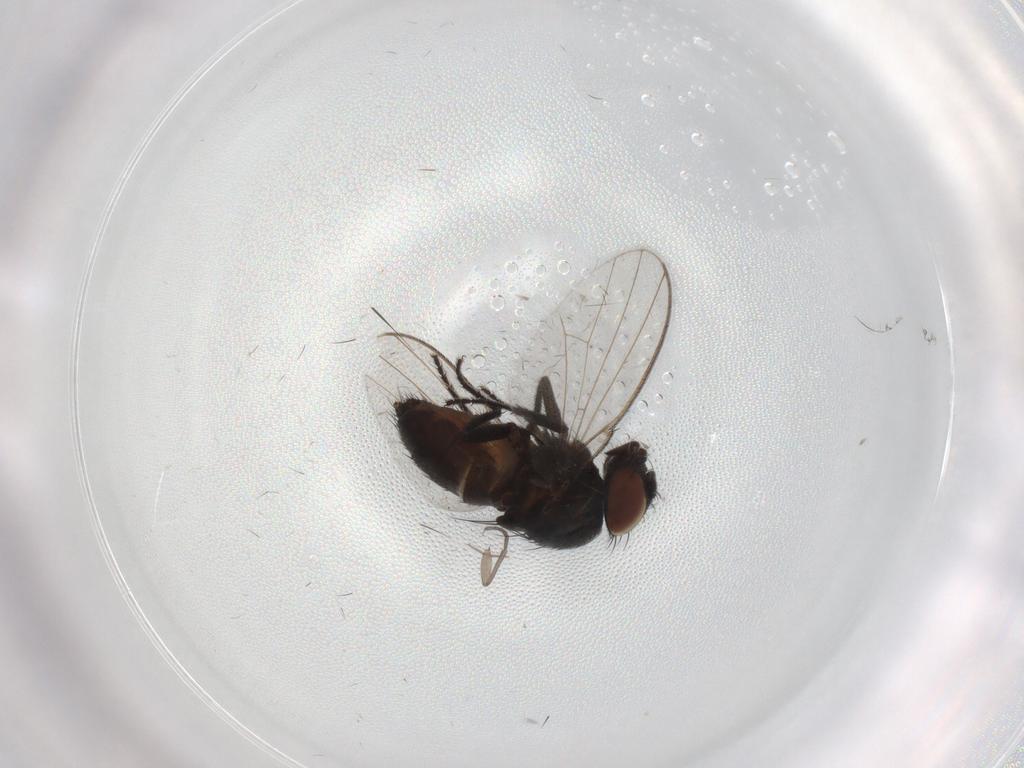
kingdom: Animalia
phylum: Arthropoda
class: Insecta
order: Diptera
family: Milichiidae
